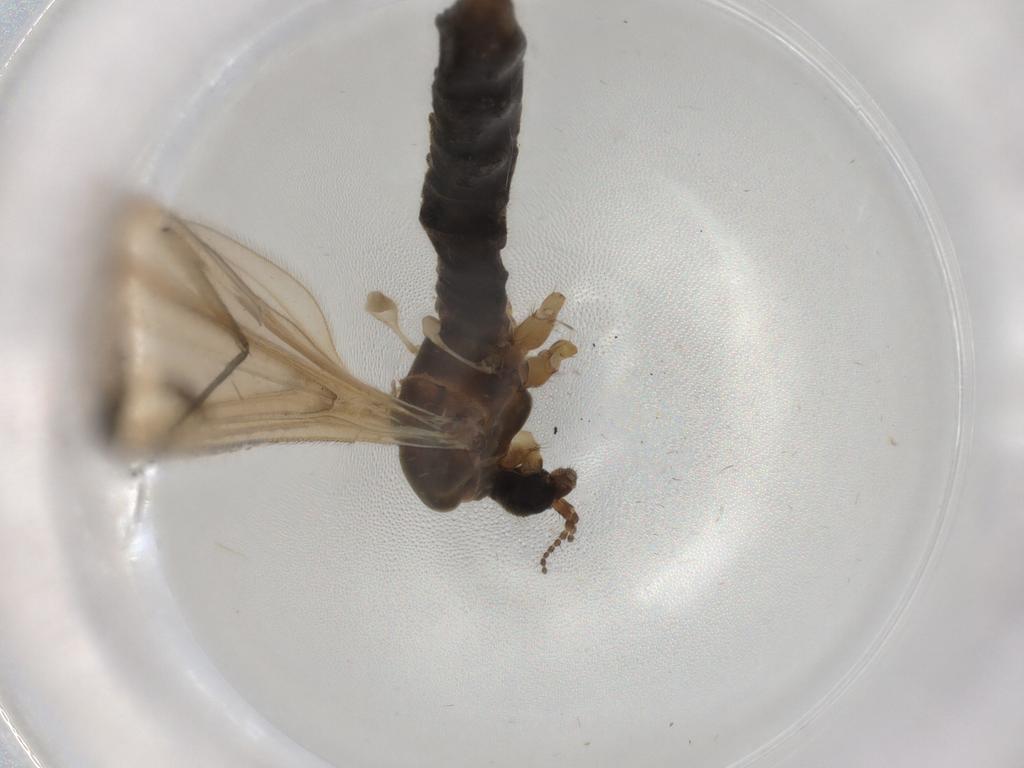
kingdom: Animalia
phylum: Arthropoda
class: Insecta
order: Diptera
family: Limoniidae
